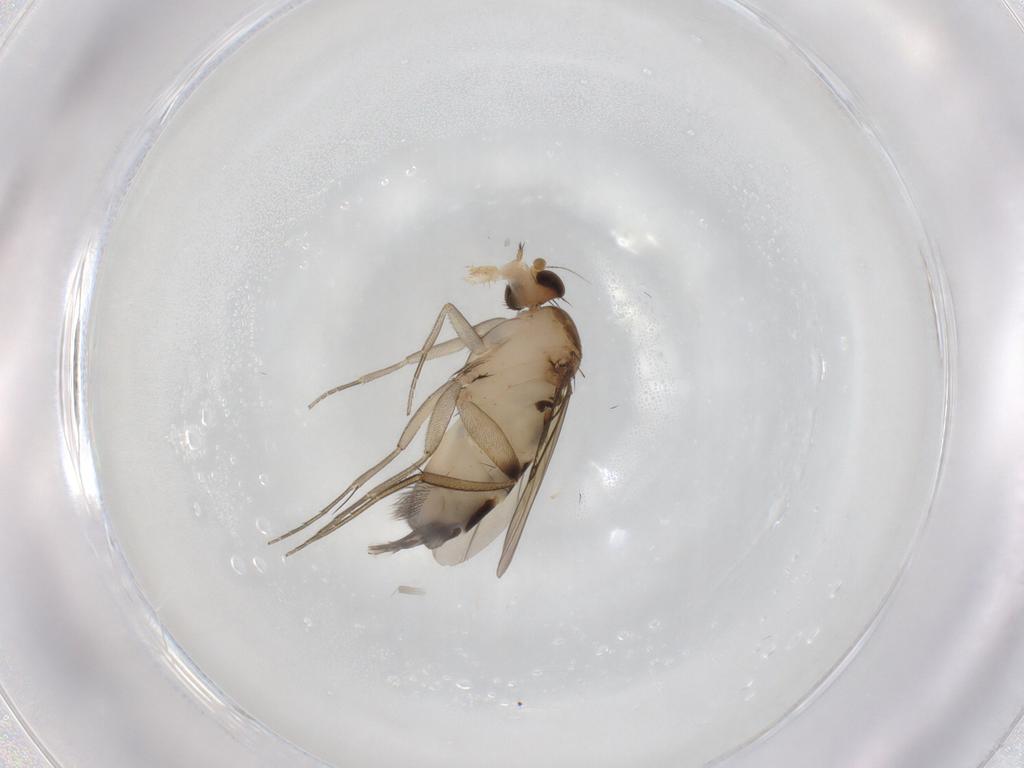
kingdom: Animalia
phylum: Arthropoda
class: Insecta
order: Diptera
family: Phoridae
